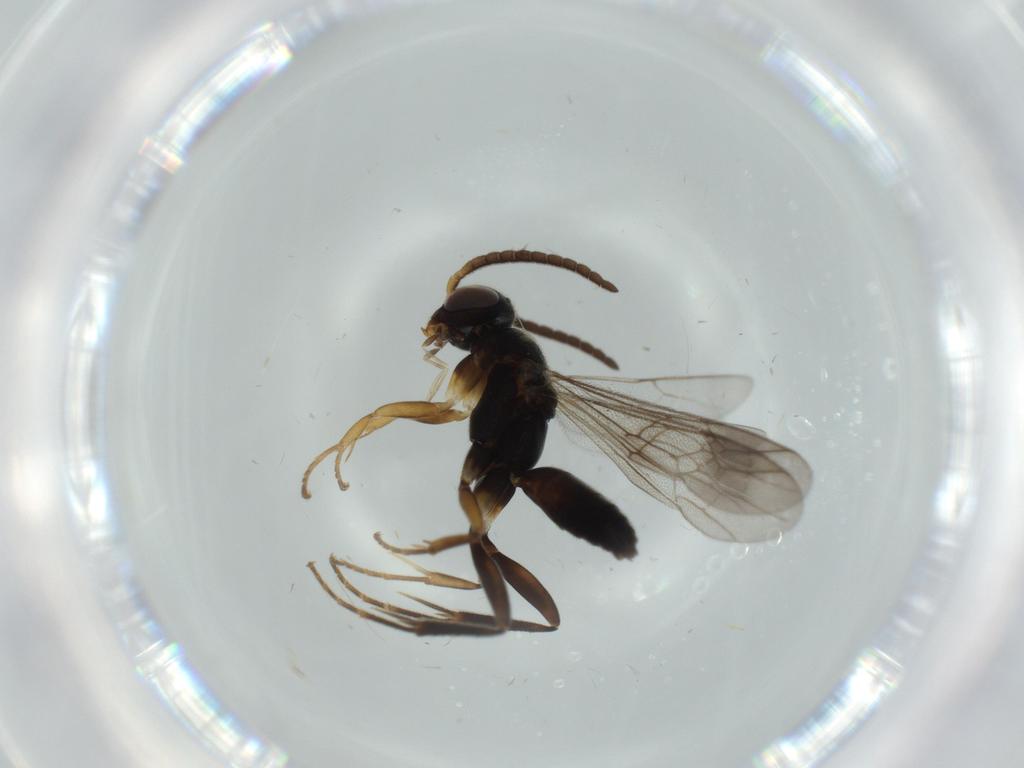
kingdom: Animalia
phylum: Arthropoda
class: Insecta
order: Hymenoptera
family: Pompilidae
